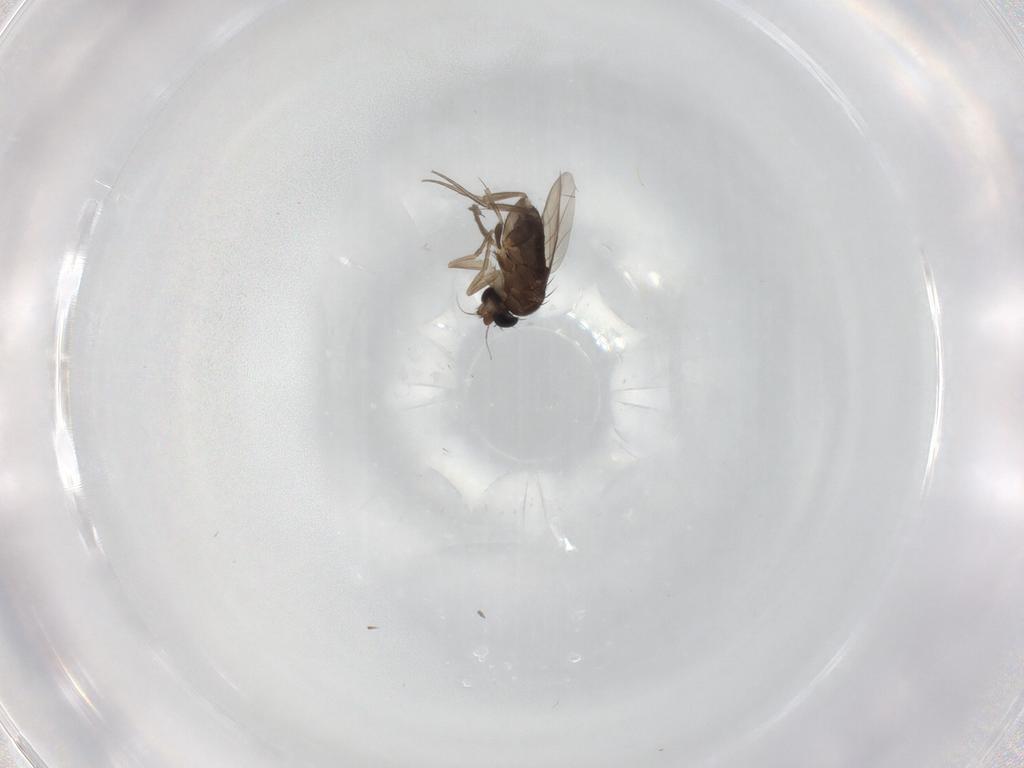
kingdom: Animalia
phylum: Arthropoda
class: Insecta
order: Diptera
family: Phoridae
